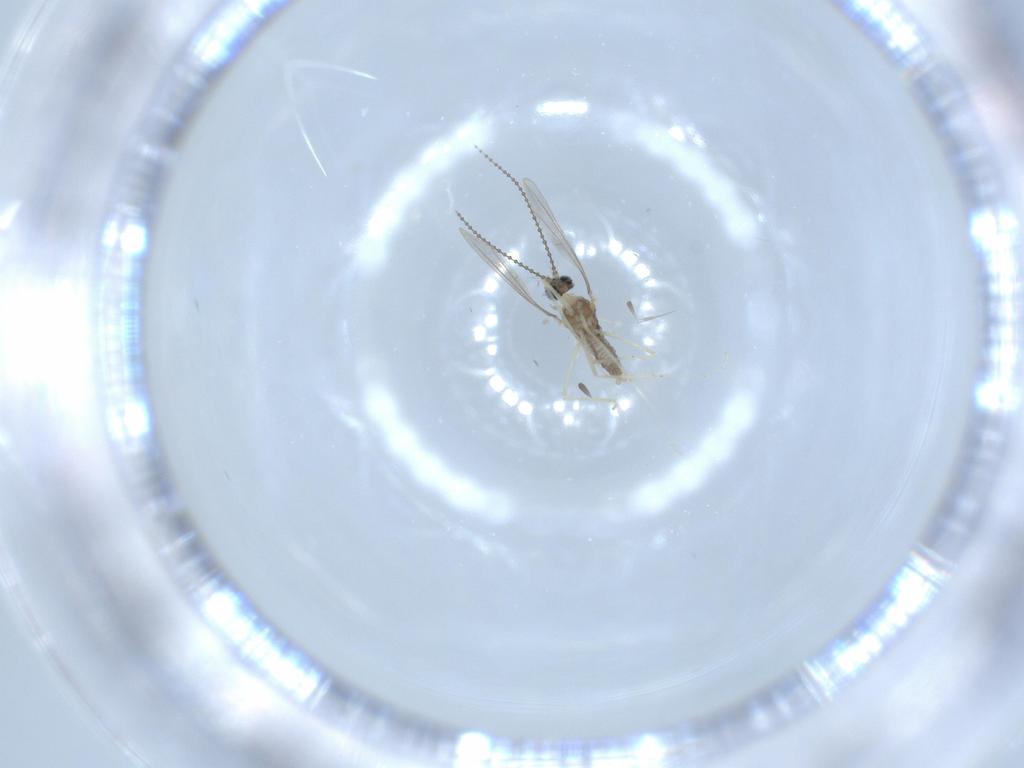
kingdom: Animalia
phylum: Arthropoda
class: Insecta
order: Diptera
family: Cecidomyiidae
